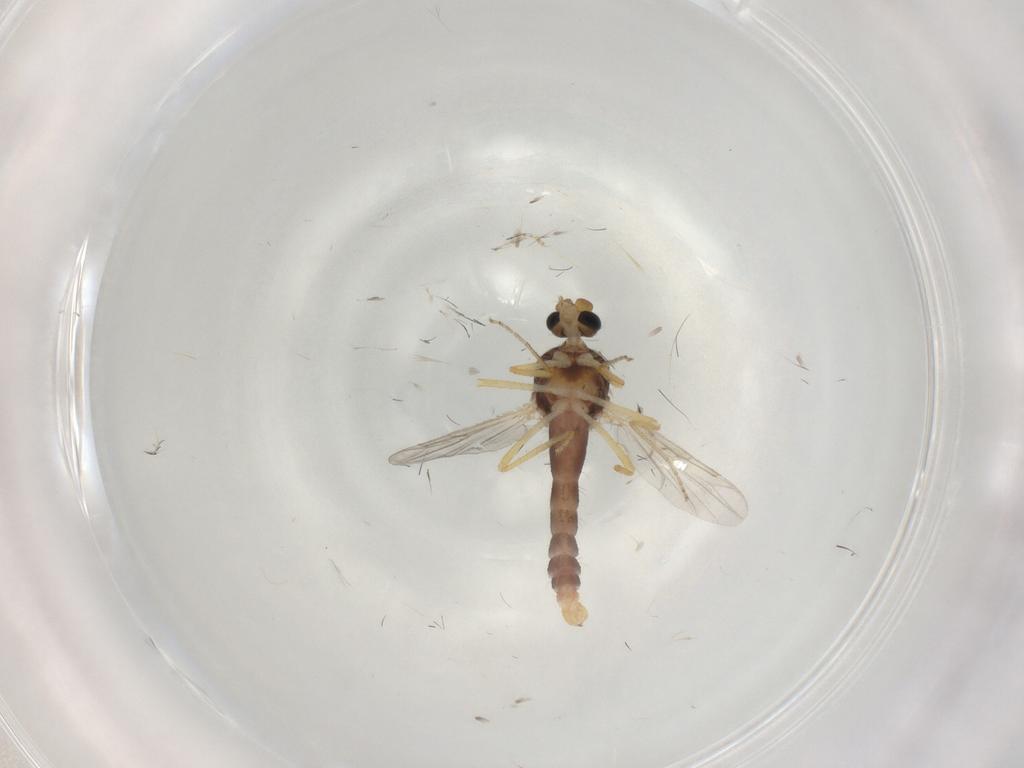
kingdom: Animalia
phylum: Arthropoda
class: Insecta
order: Diptera
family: Ceratopogonidae
